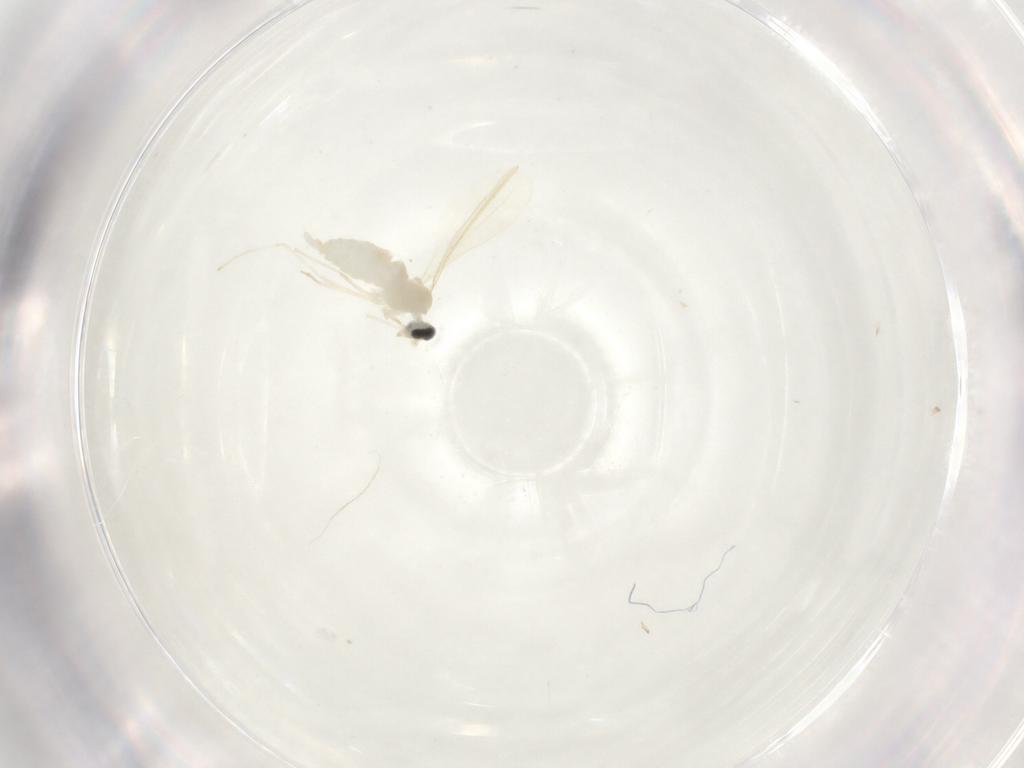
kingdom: Animalia
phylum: Arthropoda
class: Insecta
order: Diptera
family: Cecidomyiidae
